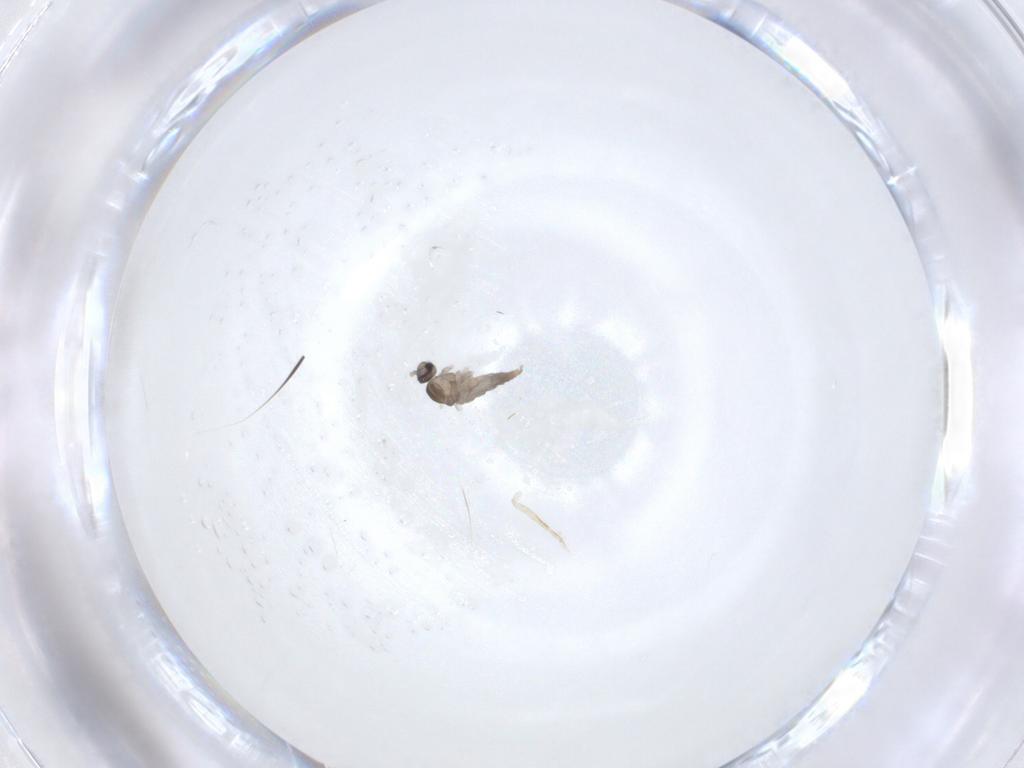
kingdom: Animalia
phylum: Arthropoda
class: Insecta
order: Diptera
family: Cecidomyiidae
